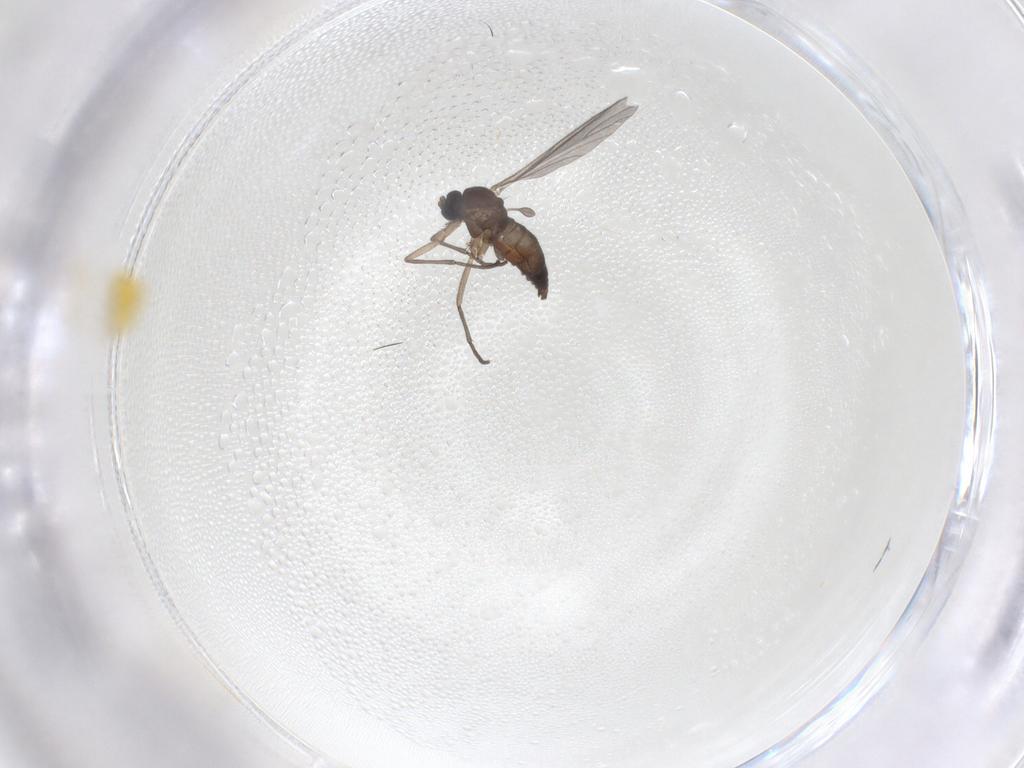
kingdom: Animalia
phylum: Arthropoda
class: Insecta
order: Diptera
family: Sciaridae
